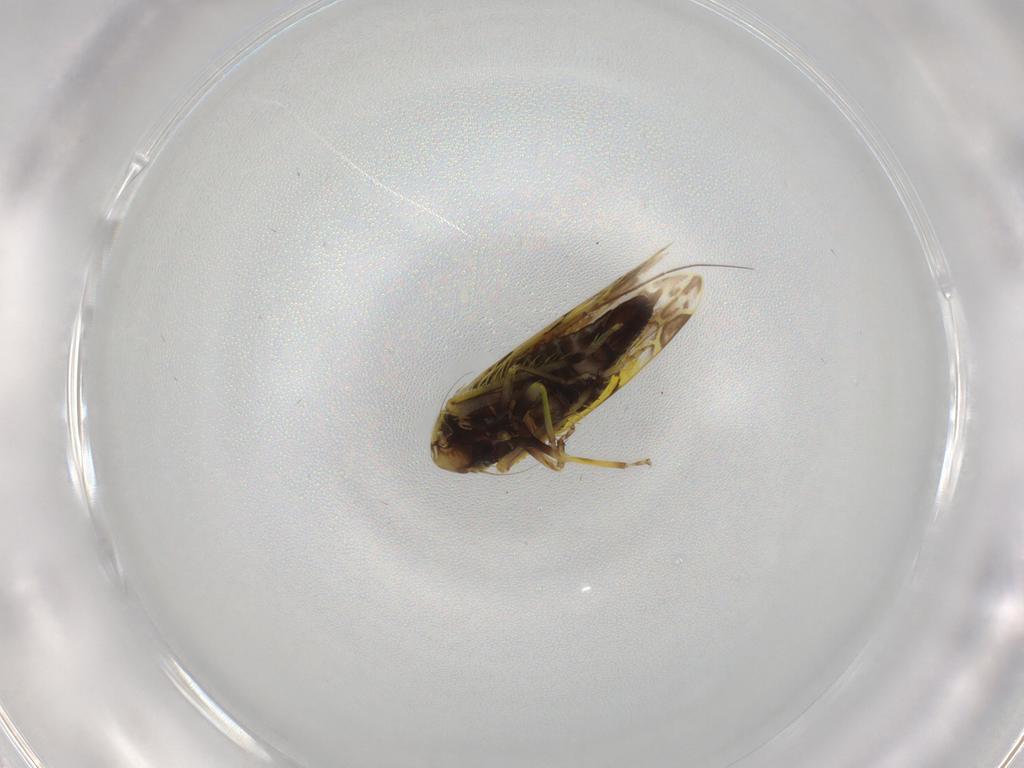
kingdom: Animalia
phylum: Arthropoda
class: Insecta
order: Hemiptera
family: Cicadellidae
